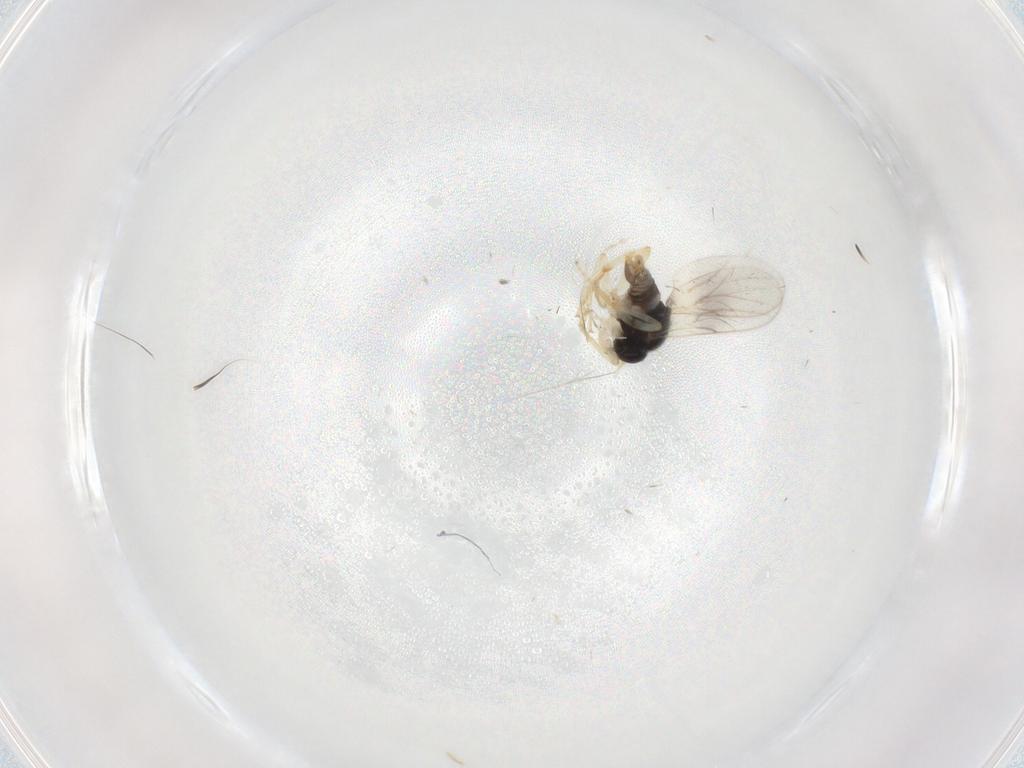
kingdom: Animalia
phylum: Arthropoda
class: Insecta
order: Diptera
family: Hybotidae
